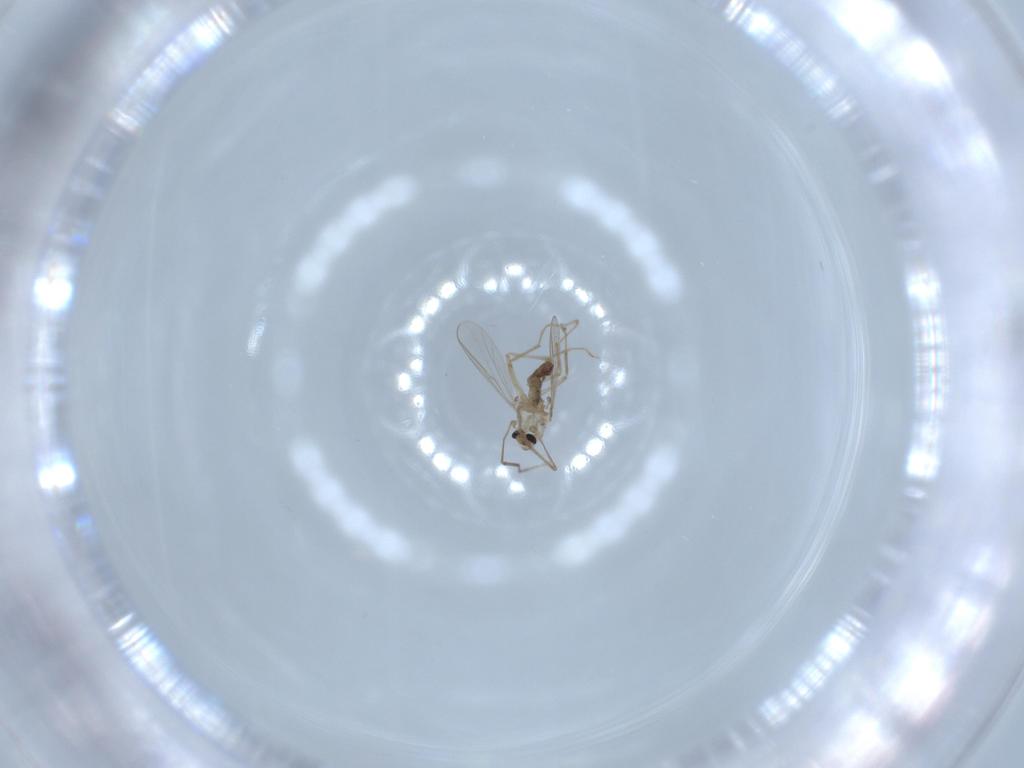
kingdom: Animalia
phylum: Arthropoda
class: Insecta
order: Diptera
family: Chironomidae
